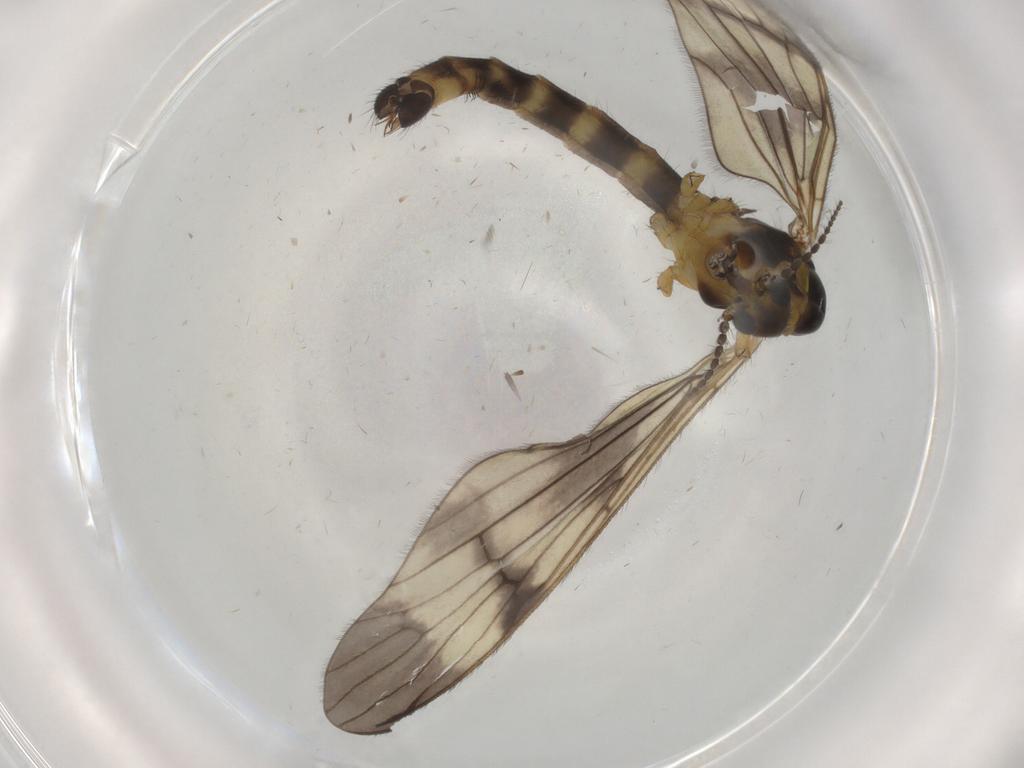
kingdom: Animalia
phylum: Arthropoda
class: Insecta
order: Diptera
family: Cecidomyiidae
